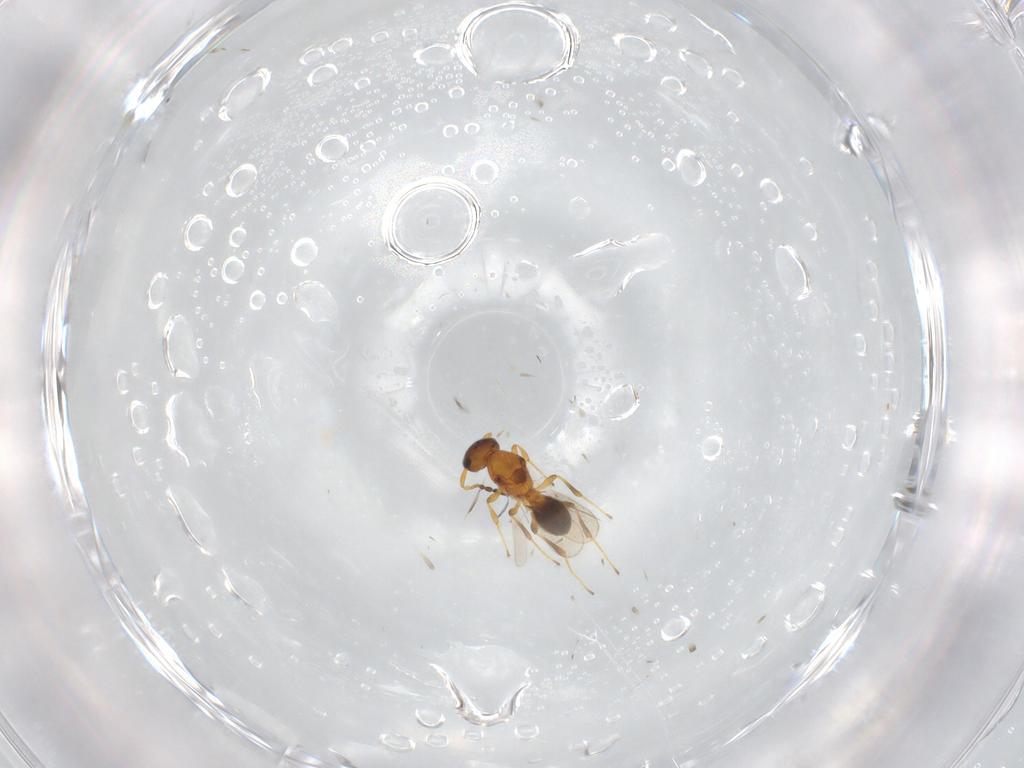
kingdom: Animalia
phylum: Arthropoda
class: Insecta
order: Hymenoptera
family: Platygastridae
